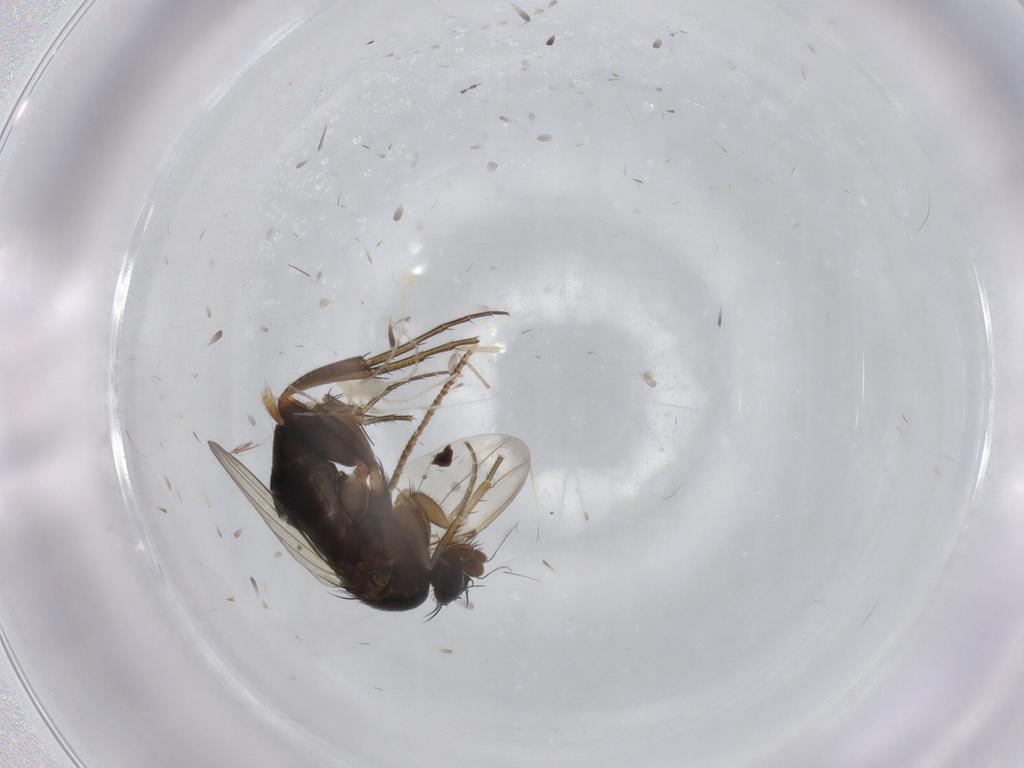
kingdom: Animalia
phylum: Arthropoda
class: Insecta
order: Diptera
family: Phoridae
